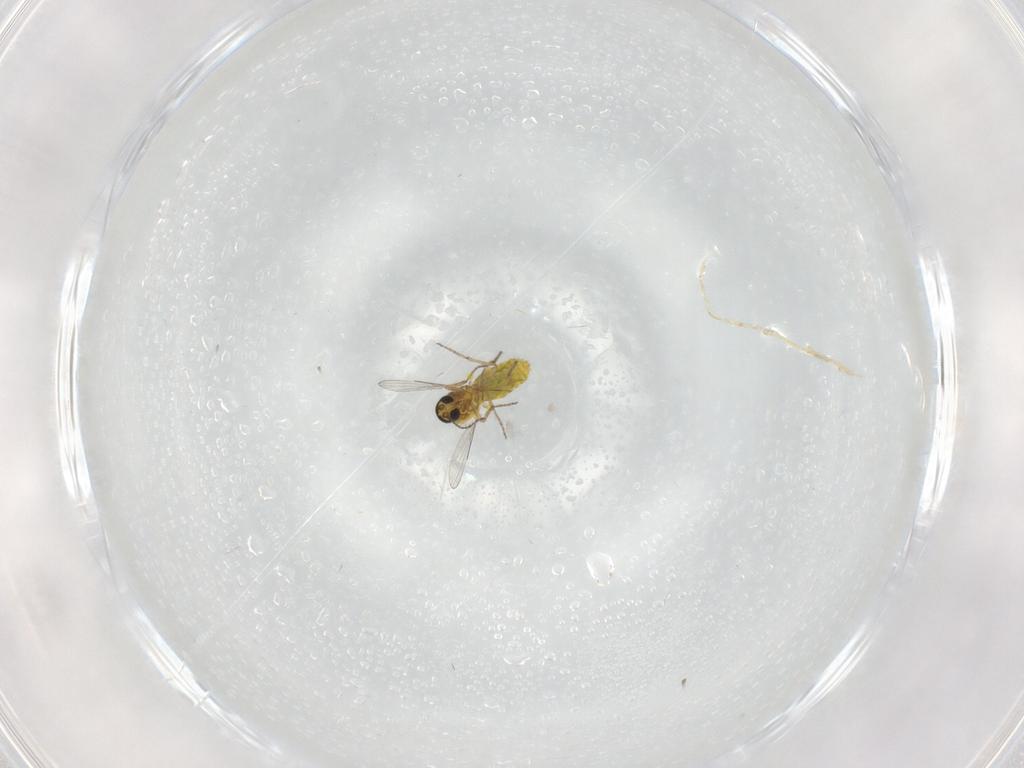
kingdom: Animalia
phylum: Arthropoda
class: Insecta
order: Diptera
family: Ceratopogonidae
